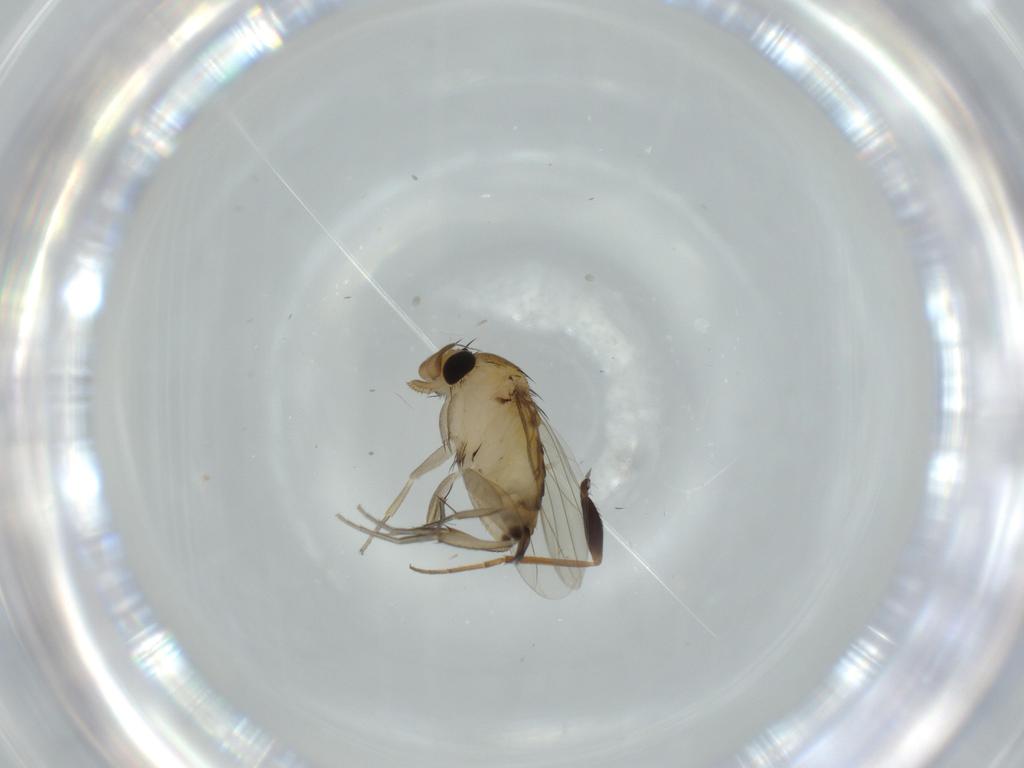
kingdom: Animalia
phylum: Arthropoda
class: Insecta
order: Diptera
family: Phoridae
